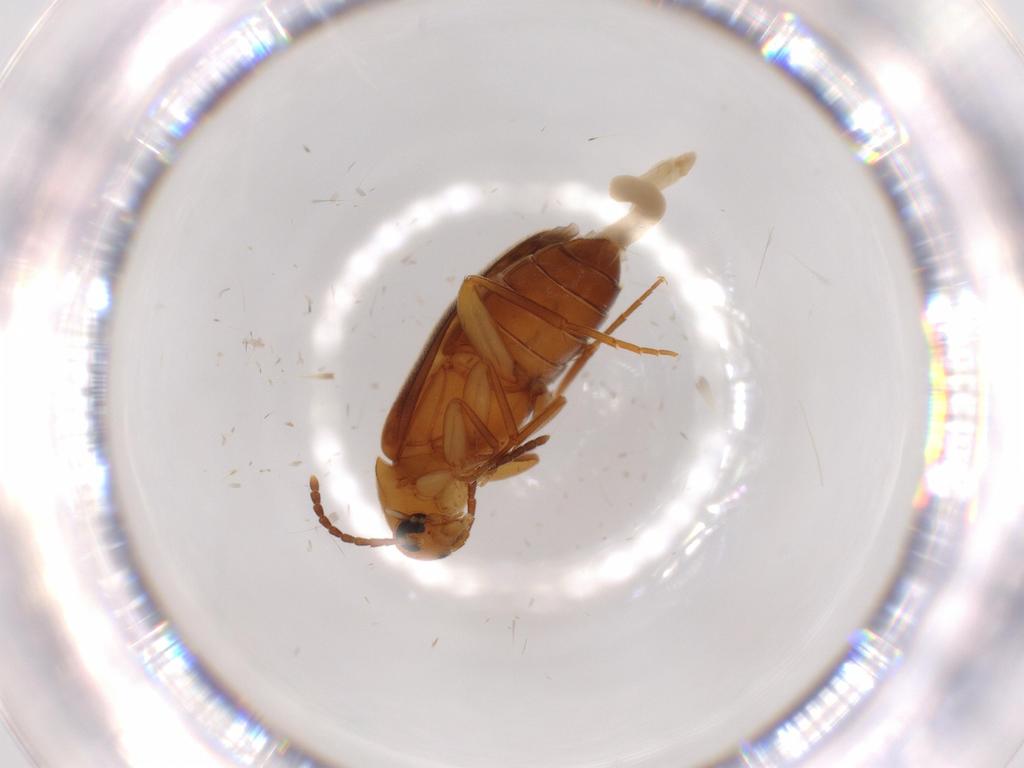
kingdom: Animalia
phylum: Arthropoda
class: Insecta
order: Coleoptera
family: Scraptiidae
